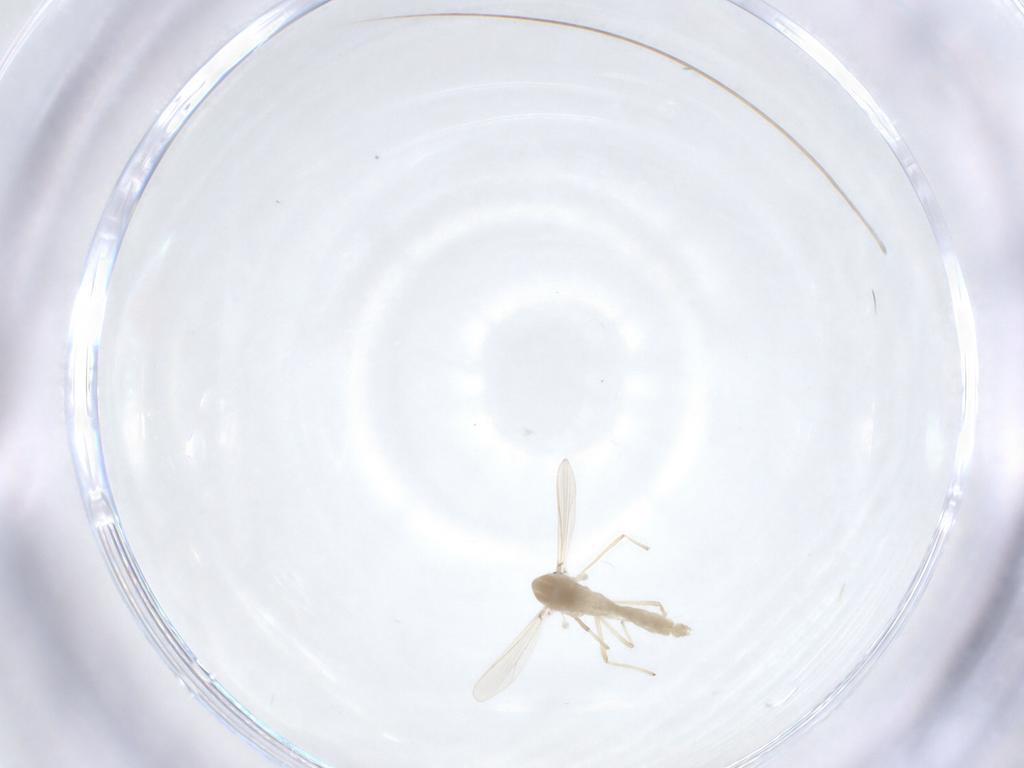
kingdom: Animalia
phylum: Arthropoda
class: Insecta
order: Diptera
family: Chironomidae
